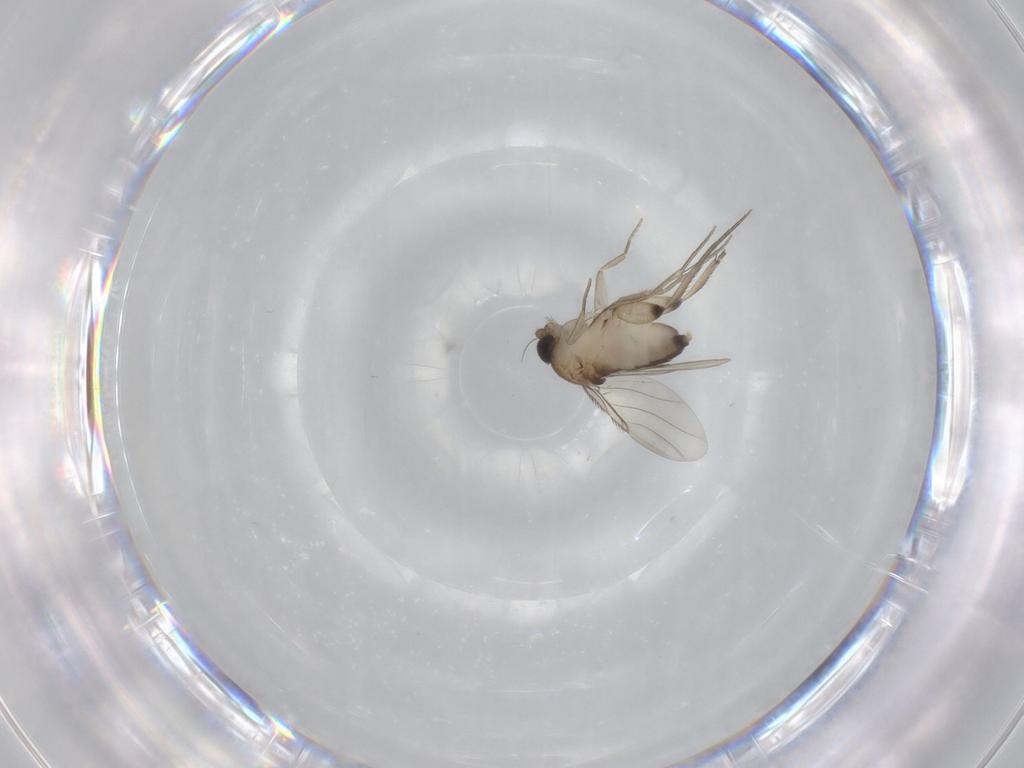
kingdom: Animalia
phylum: Arthropoda
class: Insecta
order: Diptera
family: Phoridae
